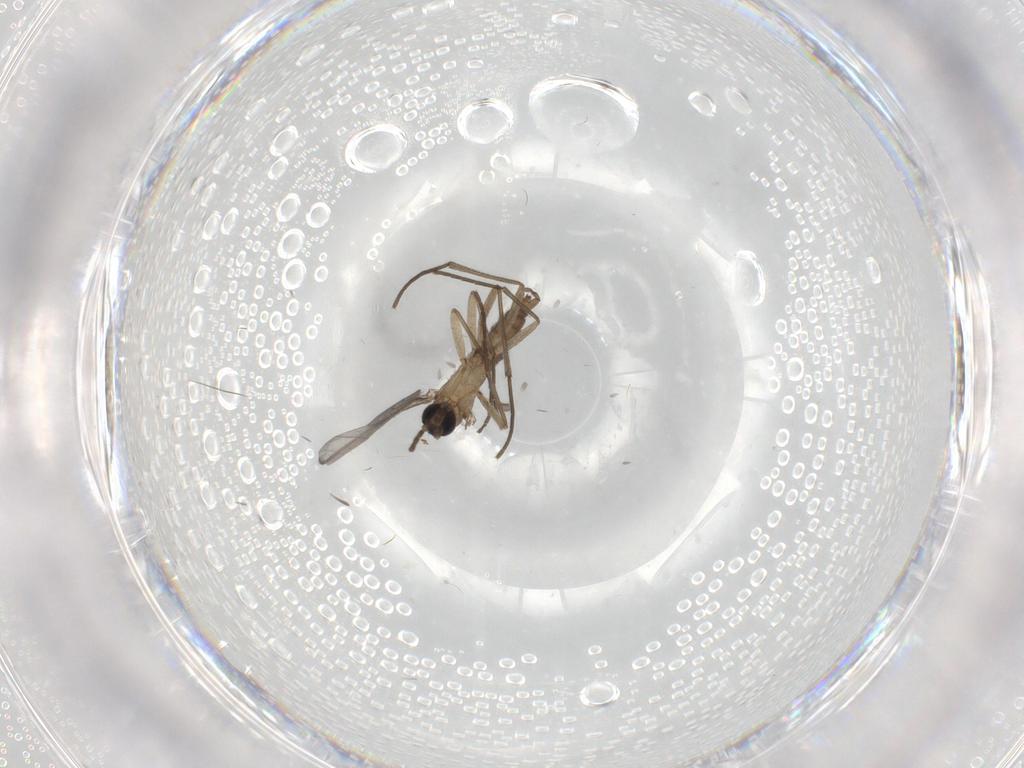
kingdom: Animalia
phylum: Arthropoda
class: Insecta
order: Diptera
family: Sciaridae
